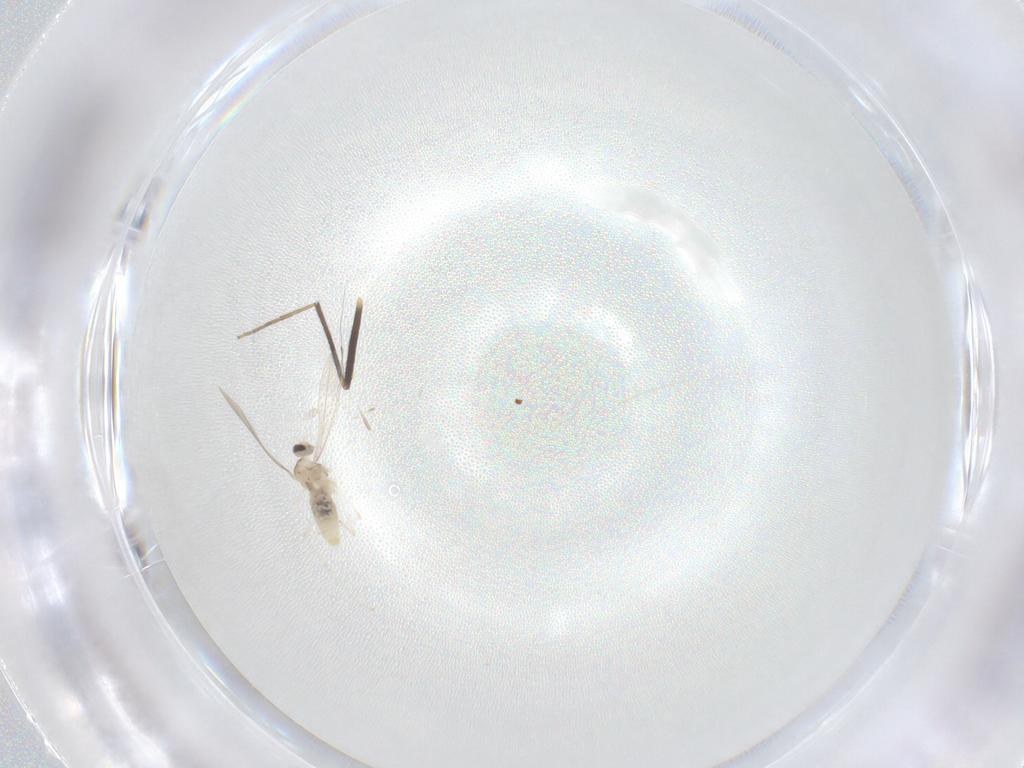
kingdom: Animalia
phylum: Arthropoda
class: Insecta
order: Diptera
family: Cecidomyiidae
